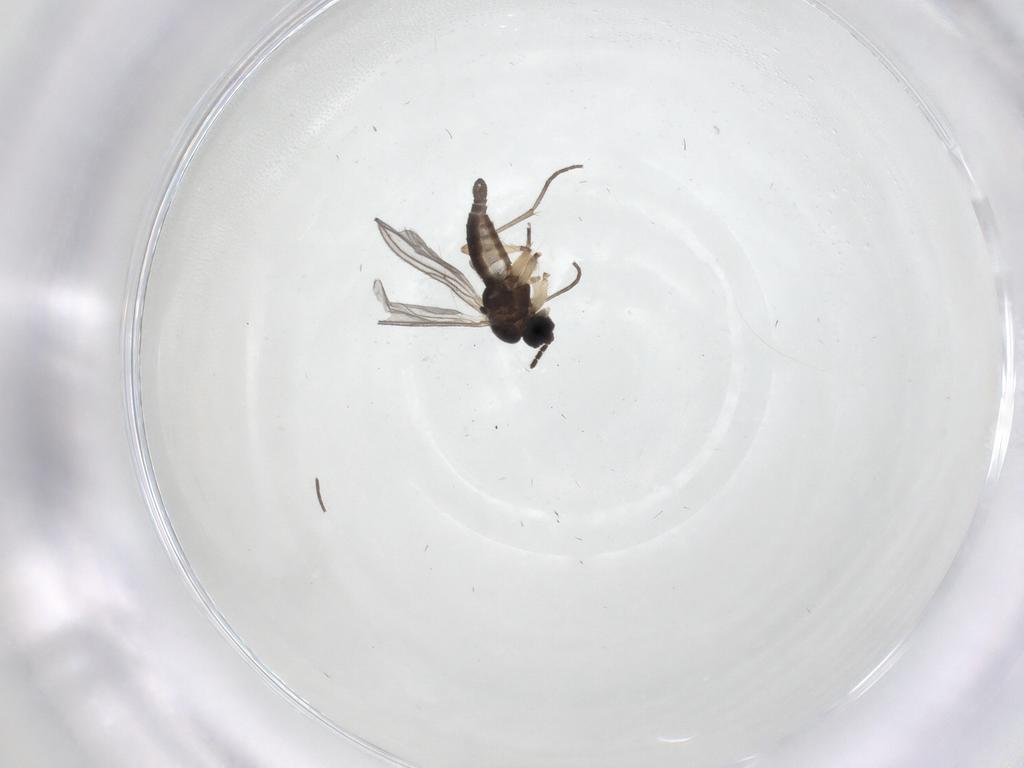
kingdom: Animalia
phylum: Arthropoda
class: Insecta
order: Diptera
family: Sciaridae
